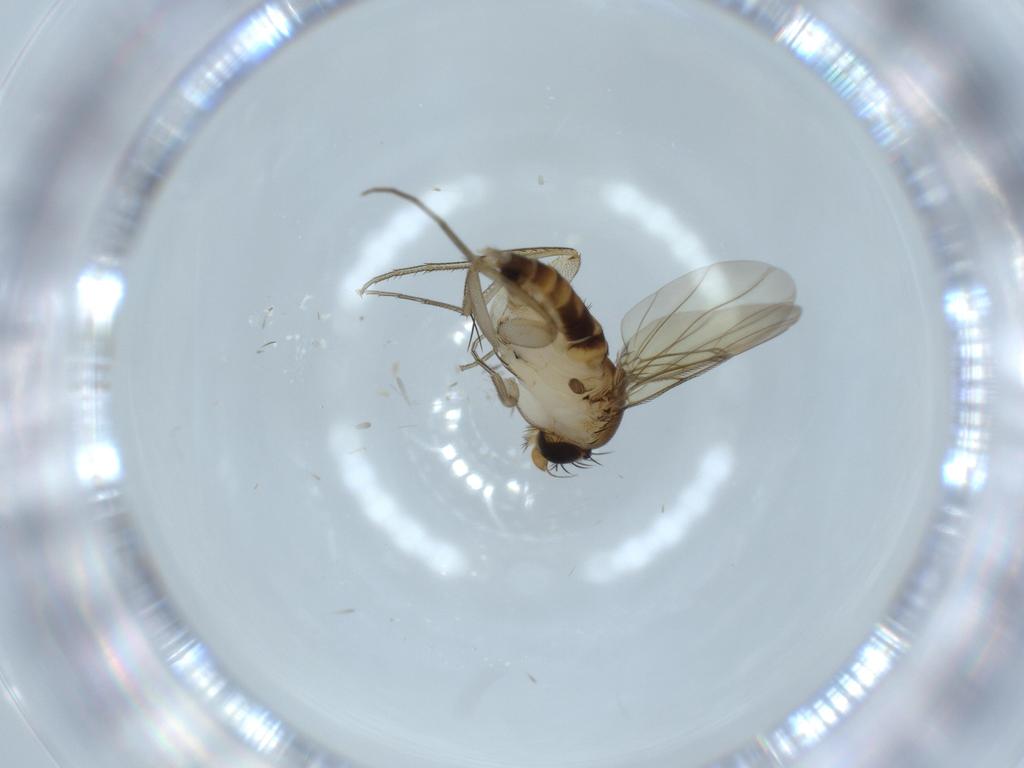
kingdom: Animalia
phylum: Arthropoda
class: Insecta
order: Diptera
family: Phoridae
